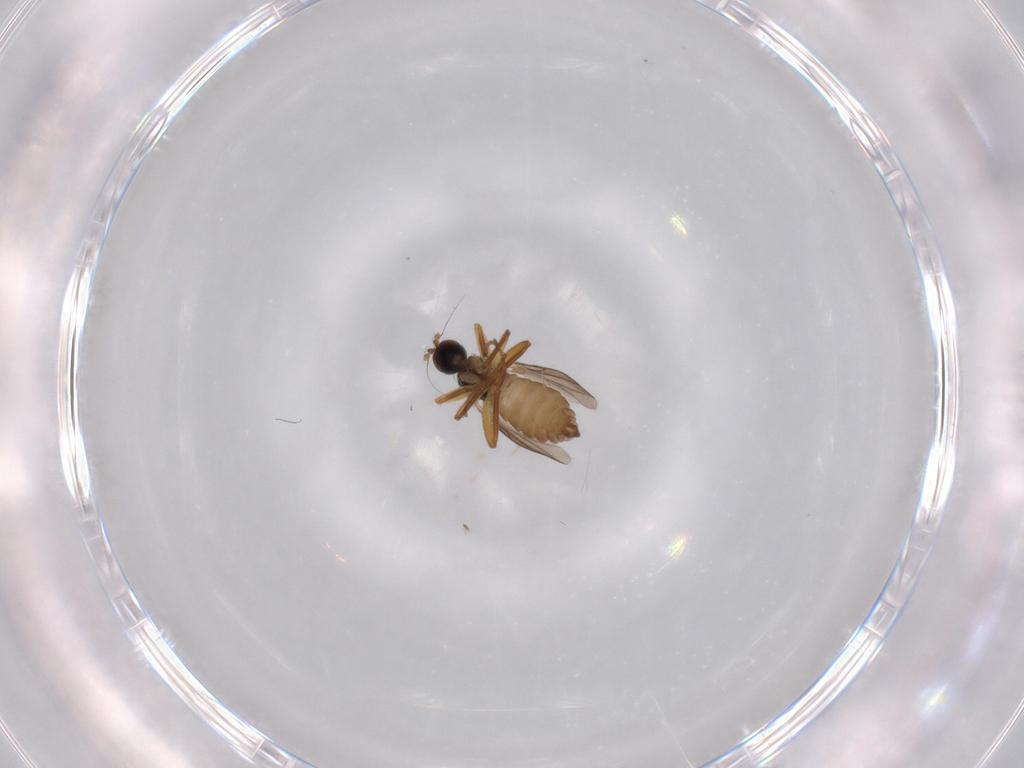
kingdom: Animalia
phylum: Arthropoda
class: Insecta
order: Diptera
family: Hybotidae
